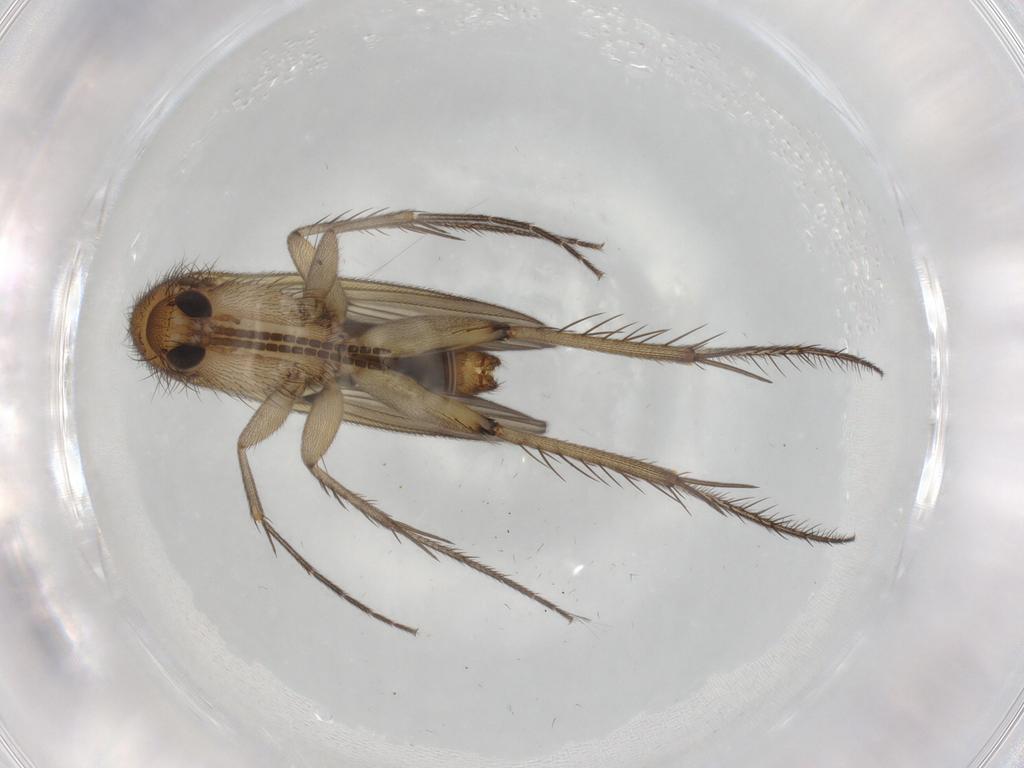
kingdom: Animalia
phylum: Arthropoda
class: Insecta
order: Diptera
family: Psychodidae
